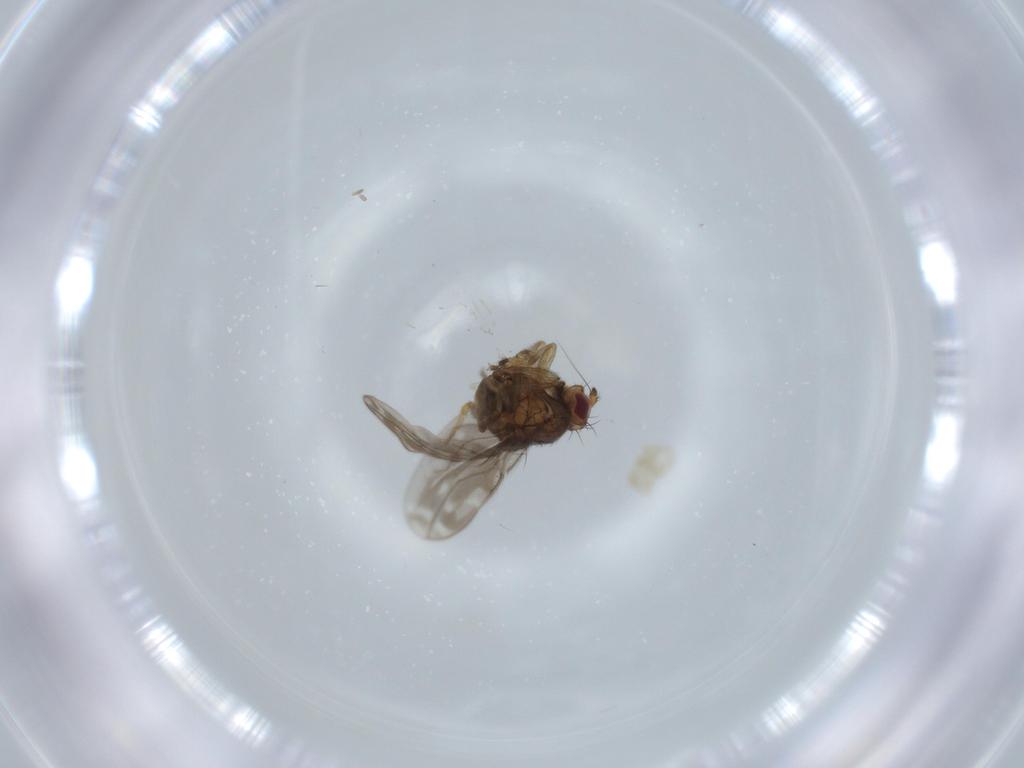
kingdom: Animalia
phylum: Arthropoda
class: Insecta
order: Diptera
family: Sphaeroceridae
